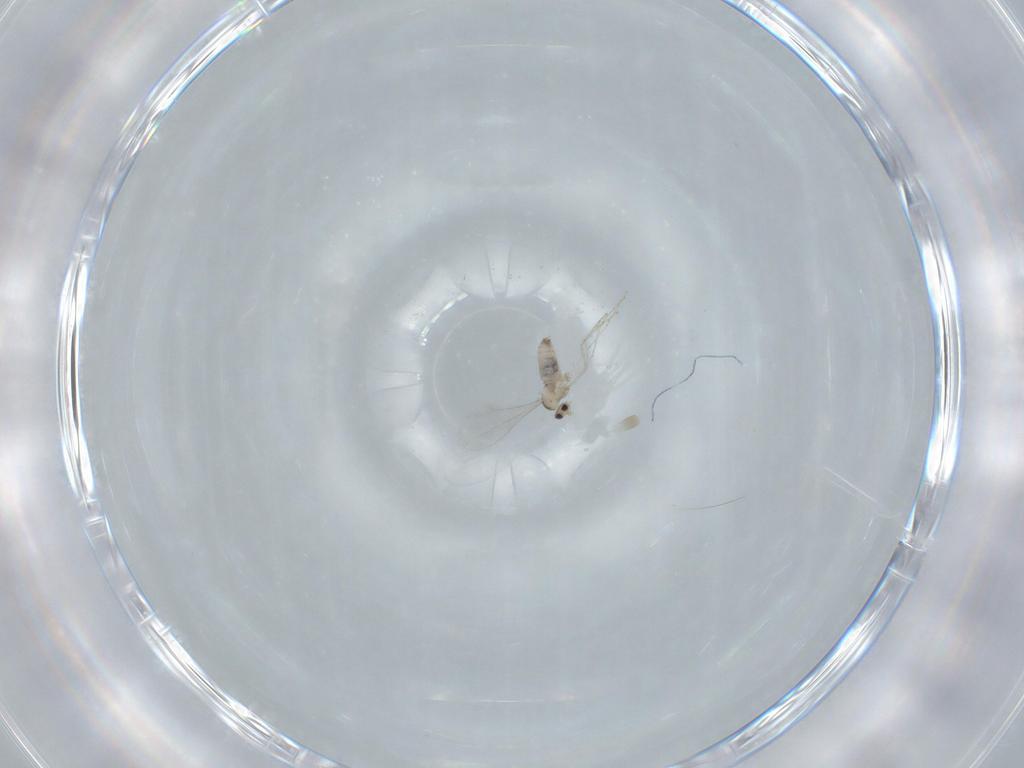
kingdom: Animalia
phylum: Arthropoda
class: Insecta
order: Diptera
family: Cecidomyiidae
